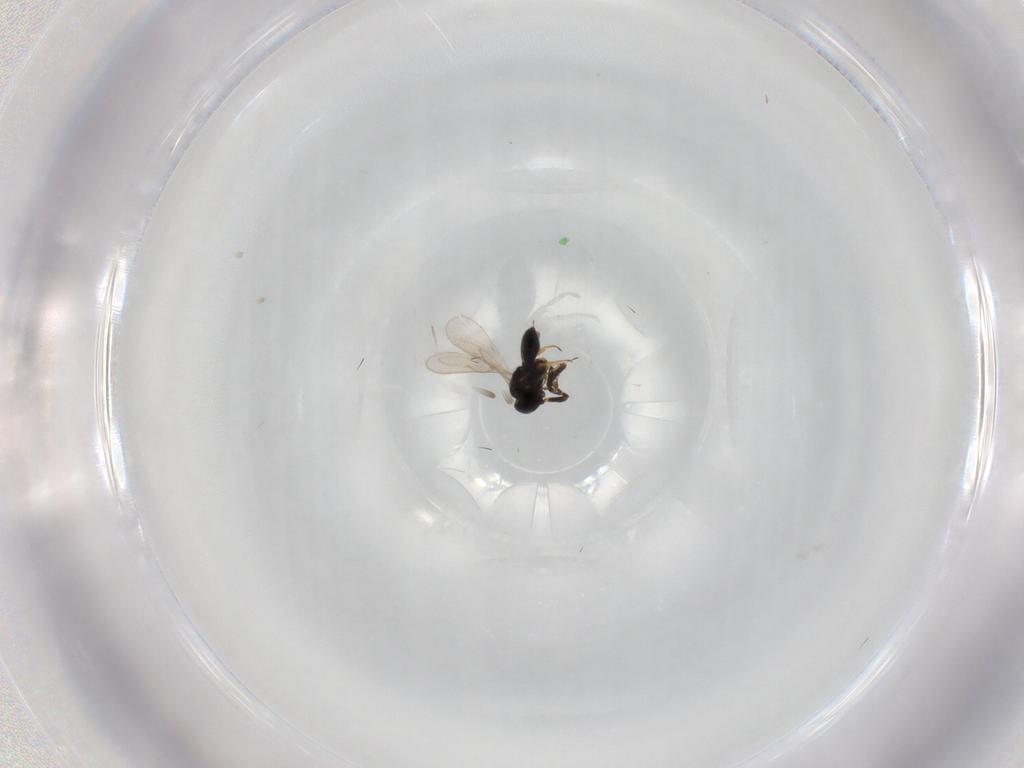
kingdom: Animalia
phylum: Arthropoda
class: Insecta
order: Hymenoptera
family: Scelionidae
